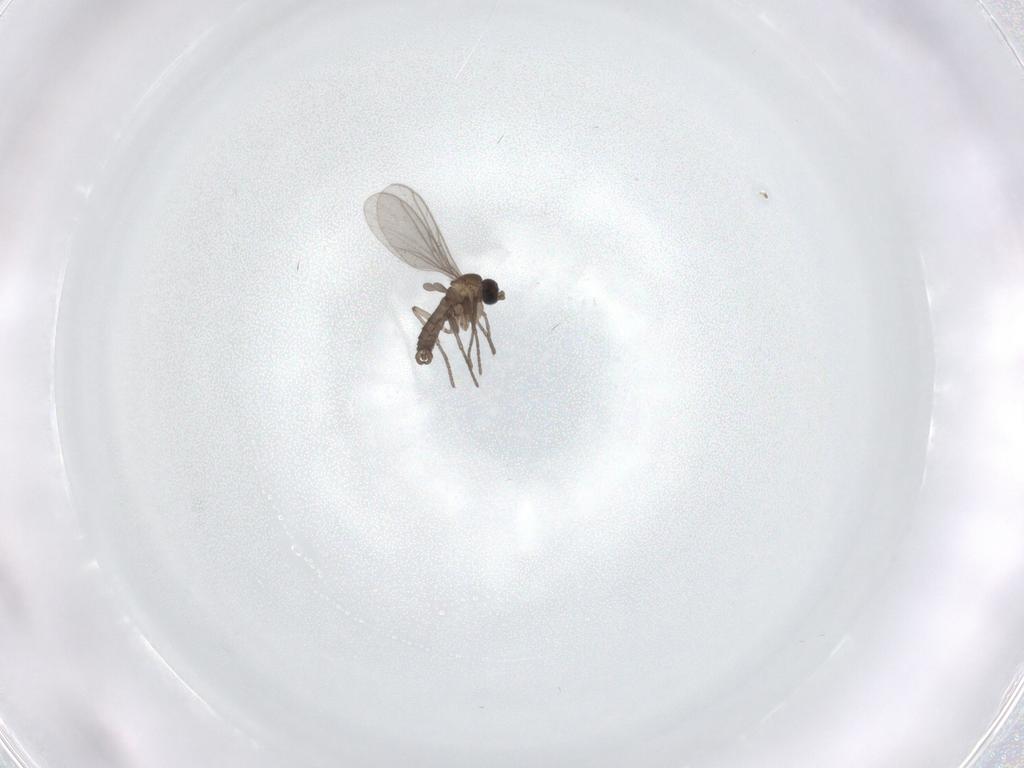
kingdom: Animalia
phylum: Arthropoda
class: Insecta
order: Diptera
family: Sciaridae
